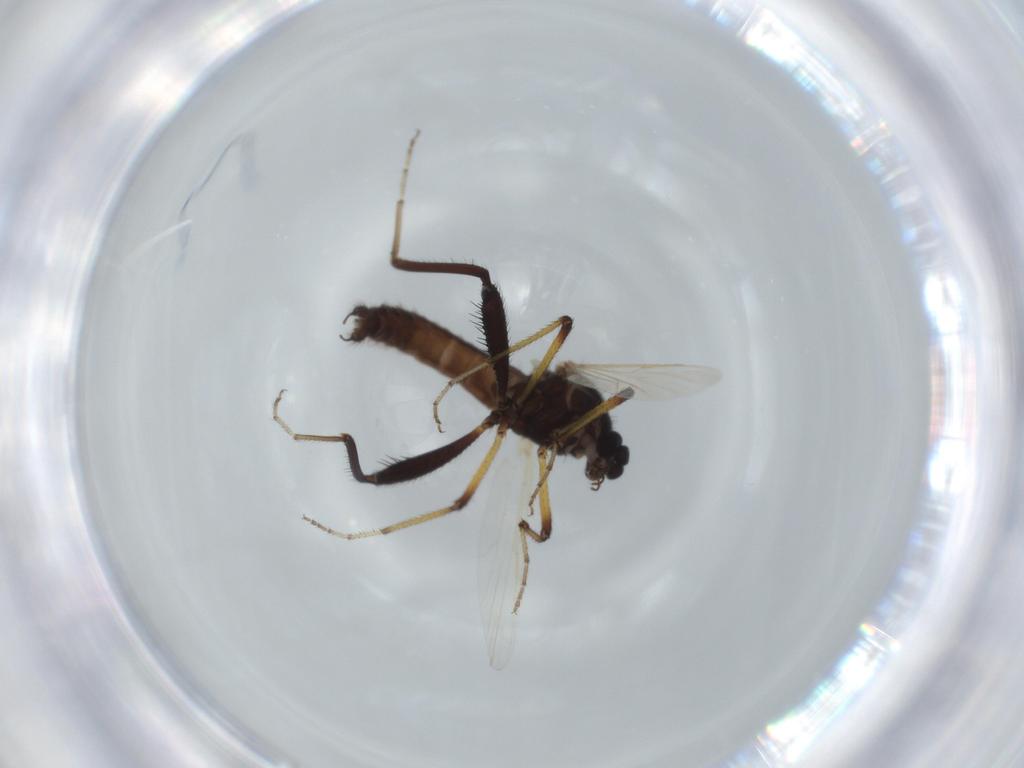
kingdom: Animalia
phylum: Arthropoda
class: Insecta
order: Diptera
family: Ceratopogonidae
